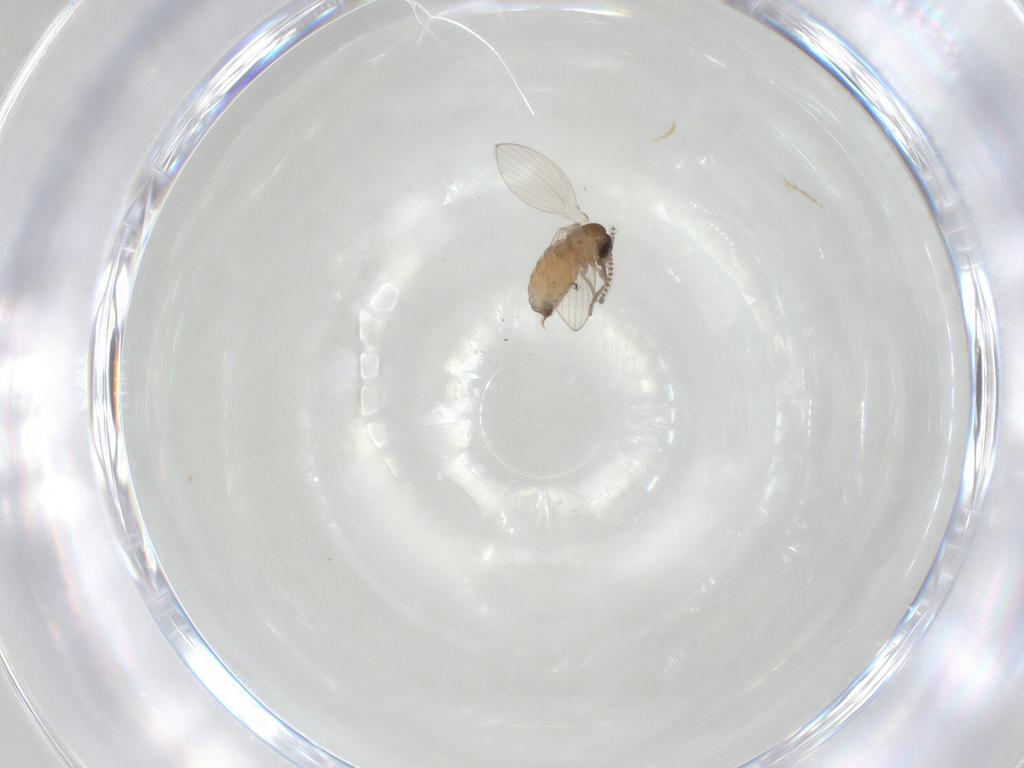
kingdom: Animalia
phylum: Arthropoda
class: Insecta
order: Diptera
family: Psychodidae
